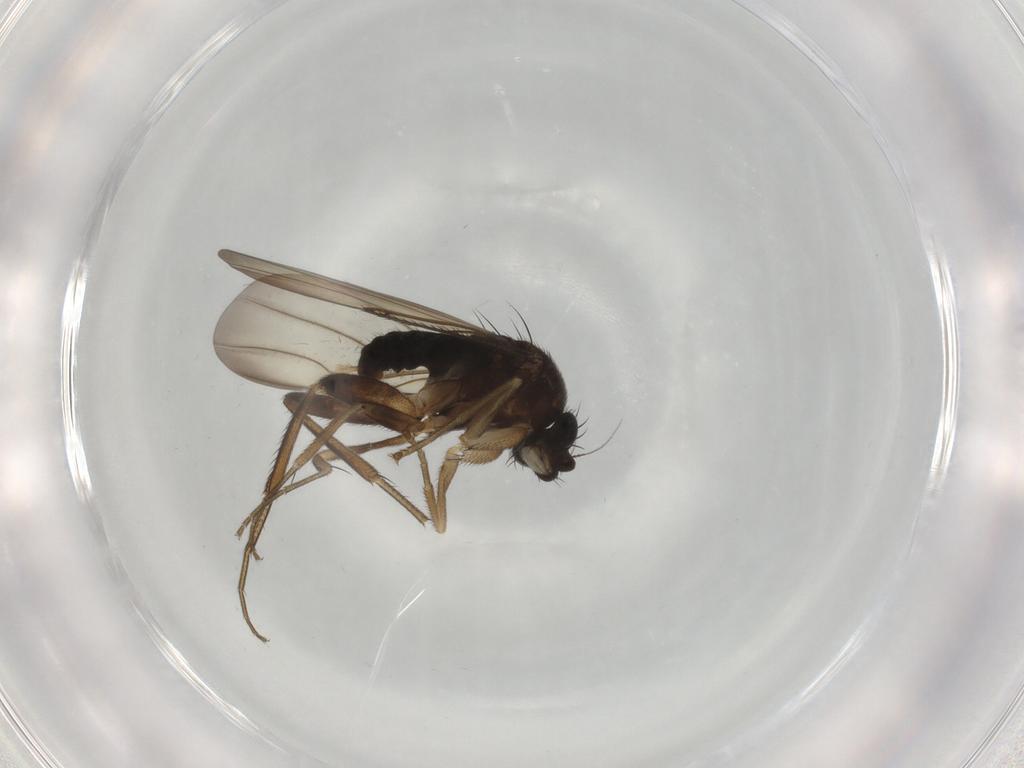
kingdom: Animalia
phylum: Arthropoda
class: Insecta
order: Diptera
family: Phoridae
